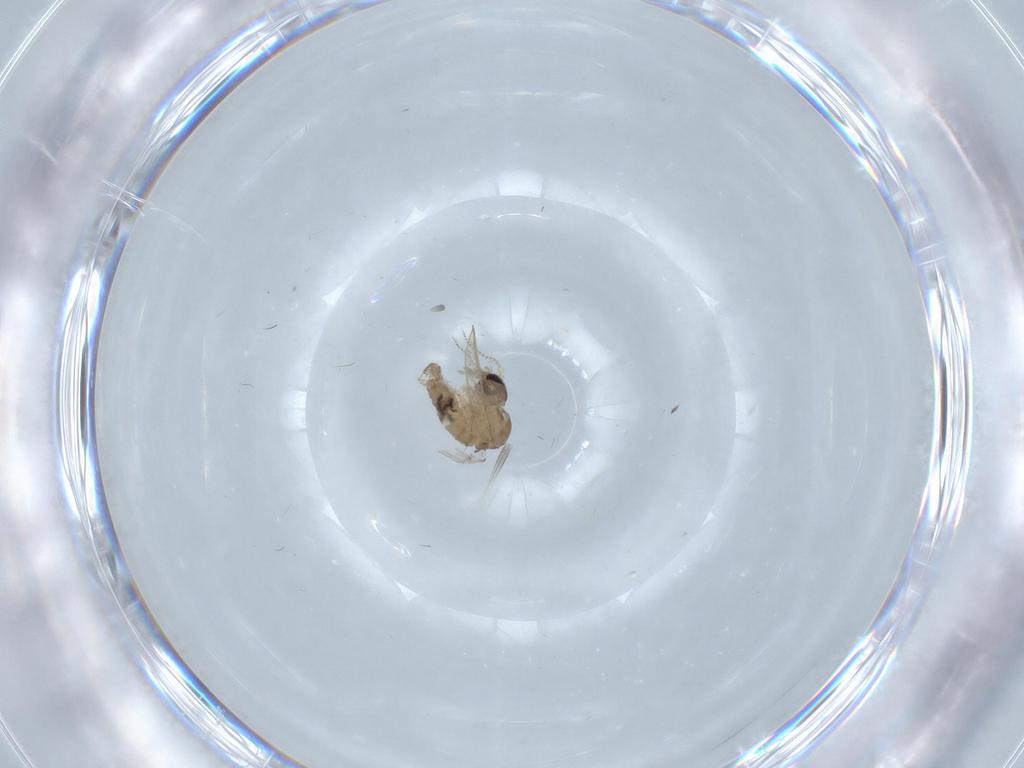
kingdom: Animalia
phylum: Arthropoda
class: Insecta
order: Diptera
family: Psychodidae
